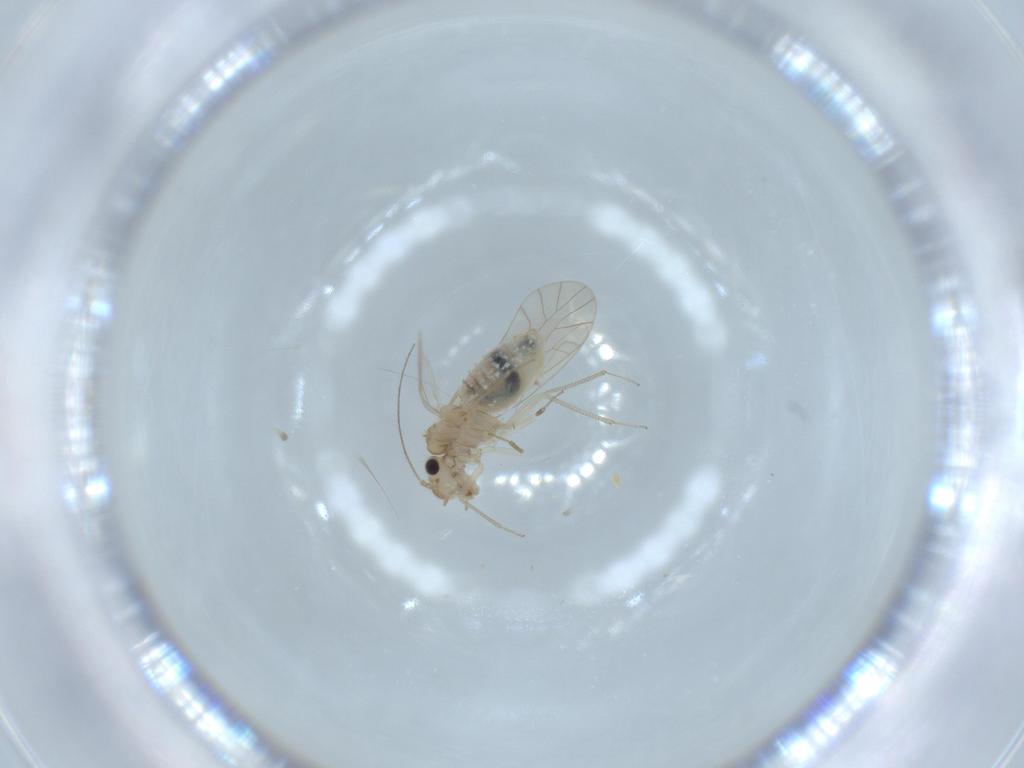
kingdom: Animalia
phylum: Arthropoda
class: Insecta
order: Psocodea
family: Lachesillidae
